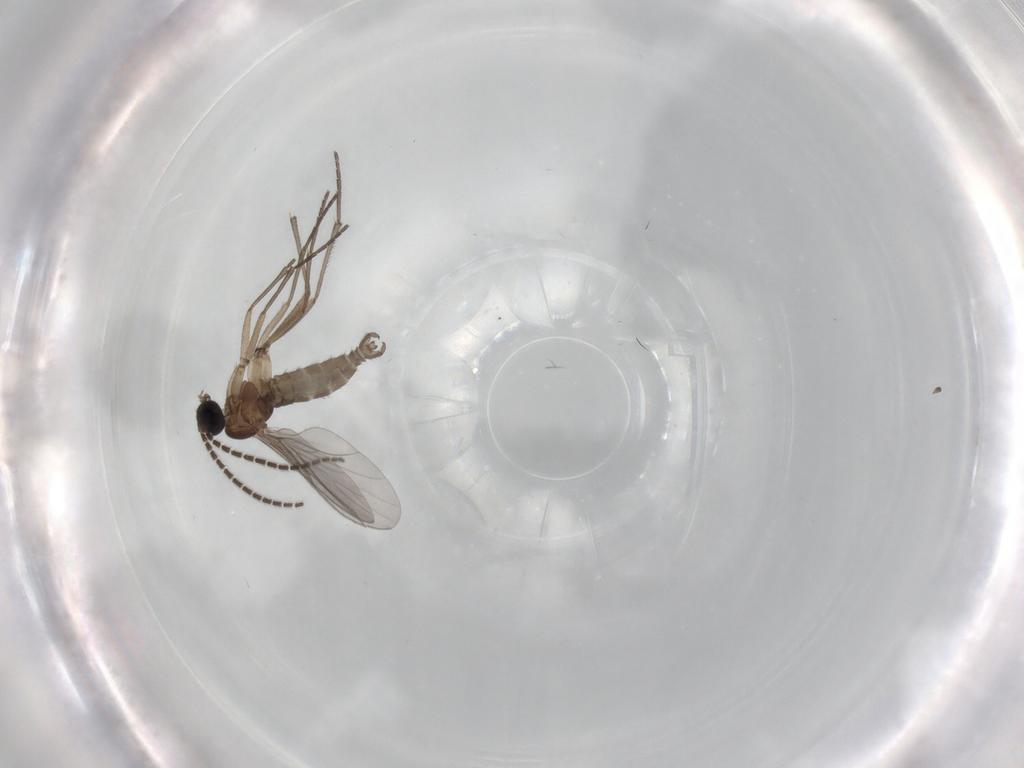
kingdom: Animalia
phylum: Arthropoda
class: Insecta
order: Diptera
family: Sciaridae
